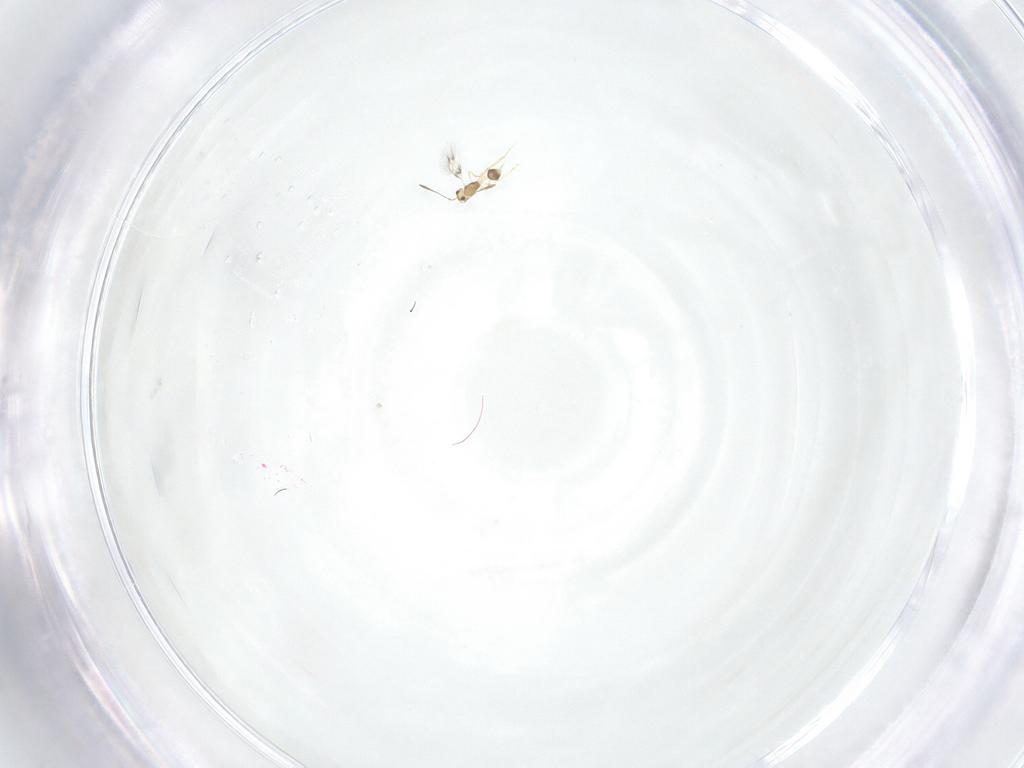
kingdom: Animalia
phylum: Arthropoda
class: Insecta
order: Hymenoptera
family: Mymarommatidae
